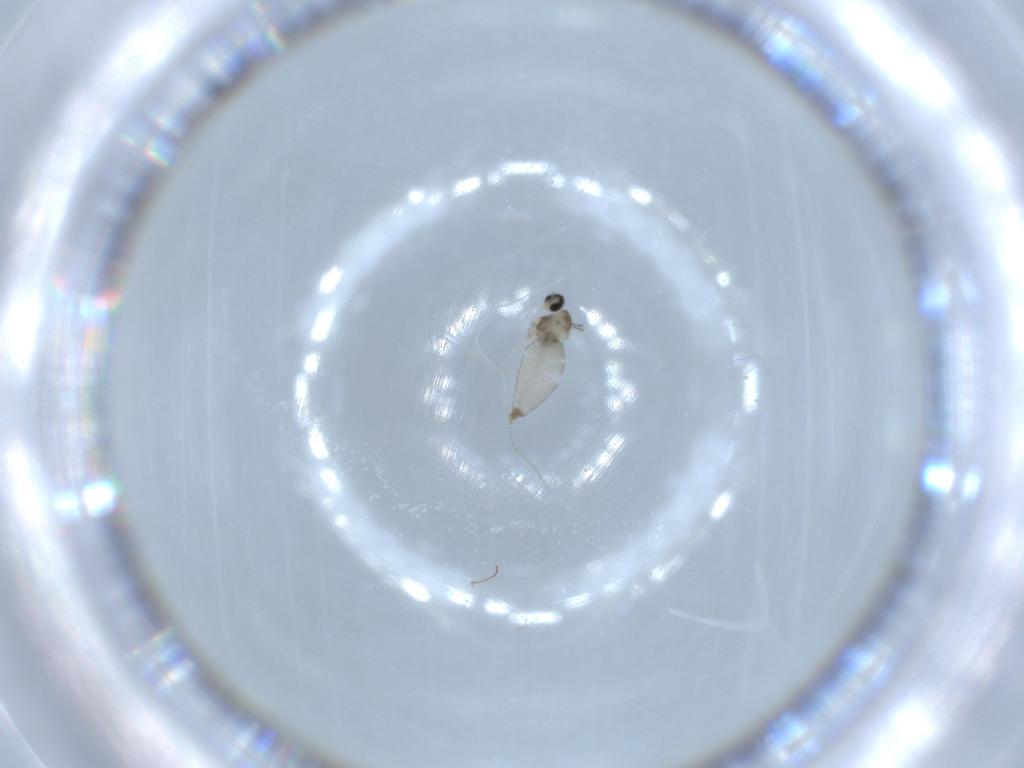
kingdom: Animalia
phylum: Arthropoda
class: Insecta
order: Diptera
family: Cecidomyiidae
